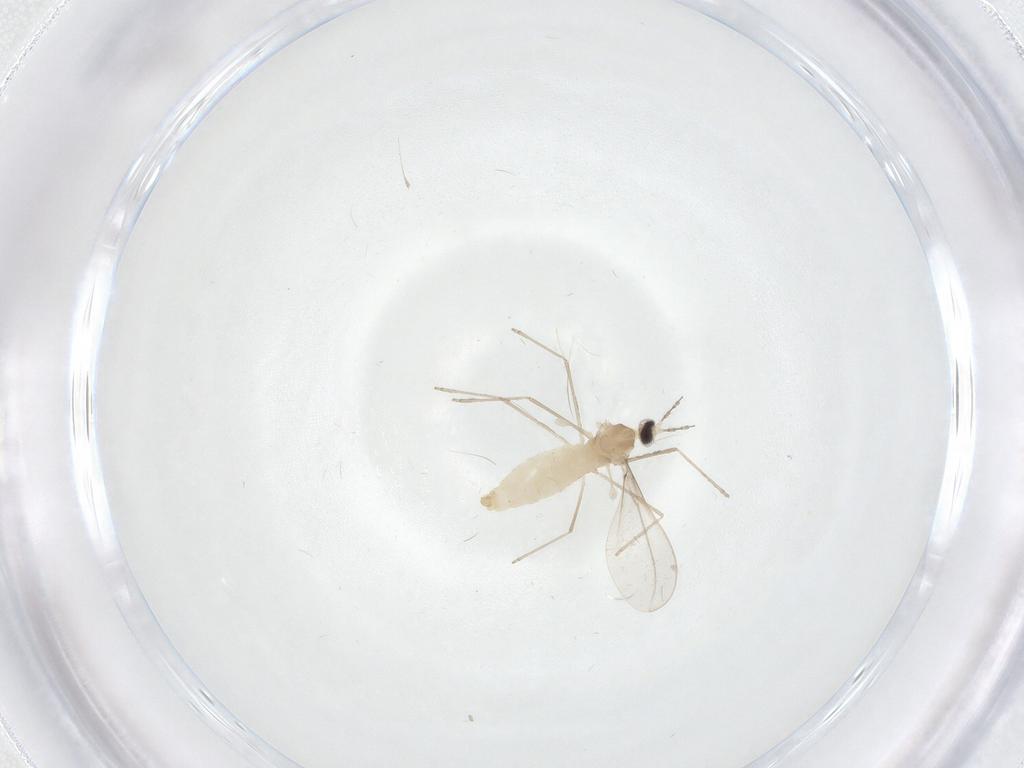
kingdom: Animalia
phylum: Arthropoda
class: Insecta
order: Diptera
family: Cecidomyiidae
